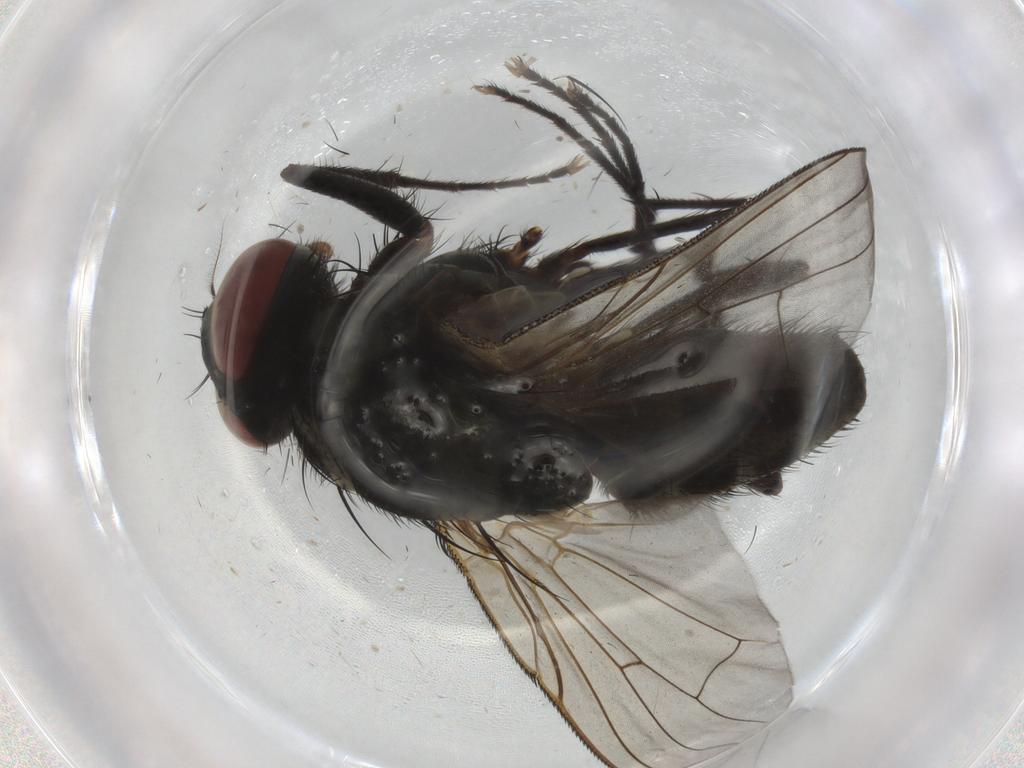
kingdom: Animalia
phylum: Arthropoda
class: Insecta
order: Diptera
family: Muscidae
